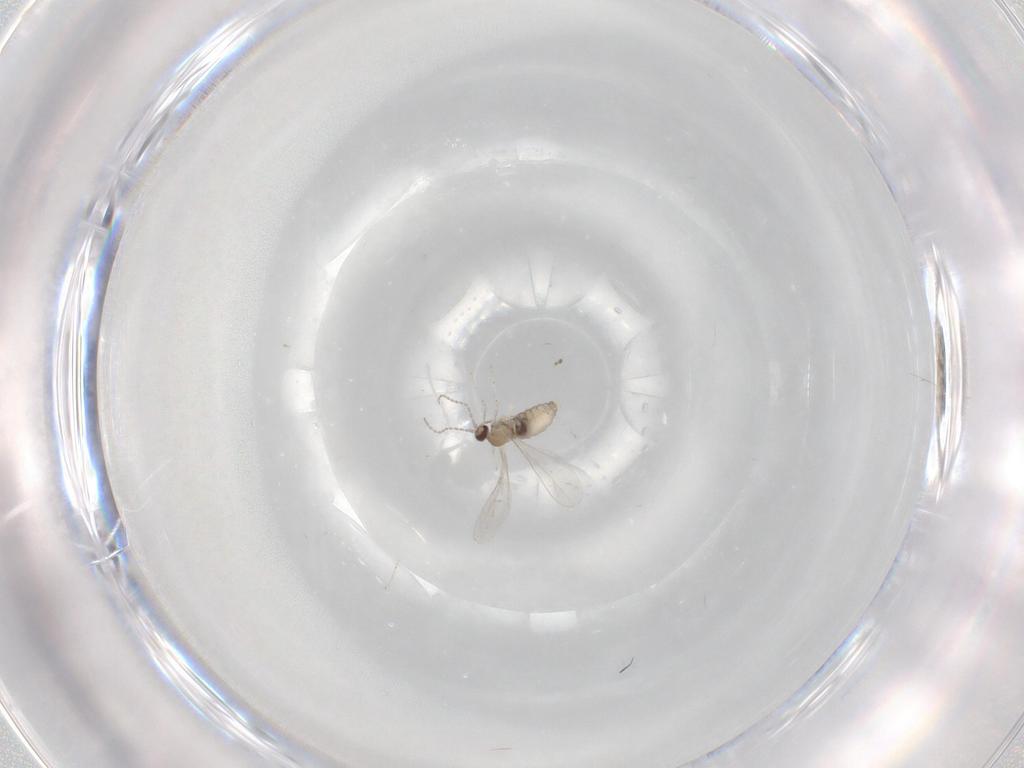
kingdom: Animalia
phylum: Arthropoda
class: Insecta
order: Diptera
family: Cecidomyiidae
